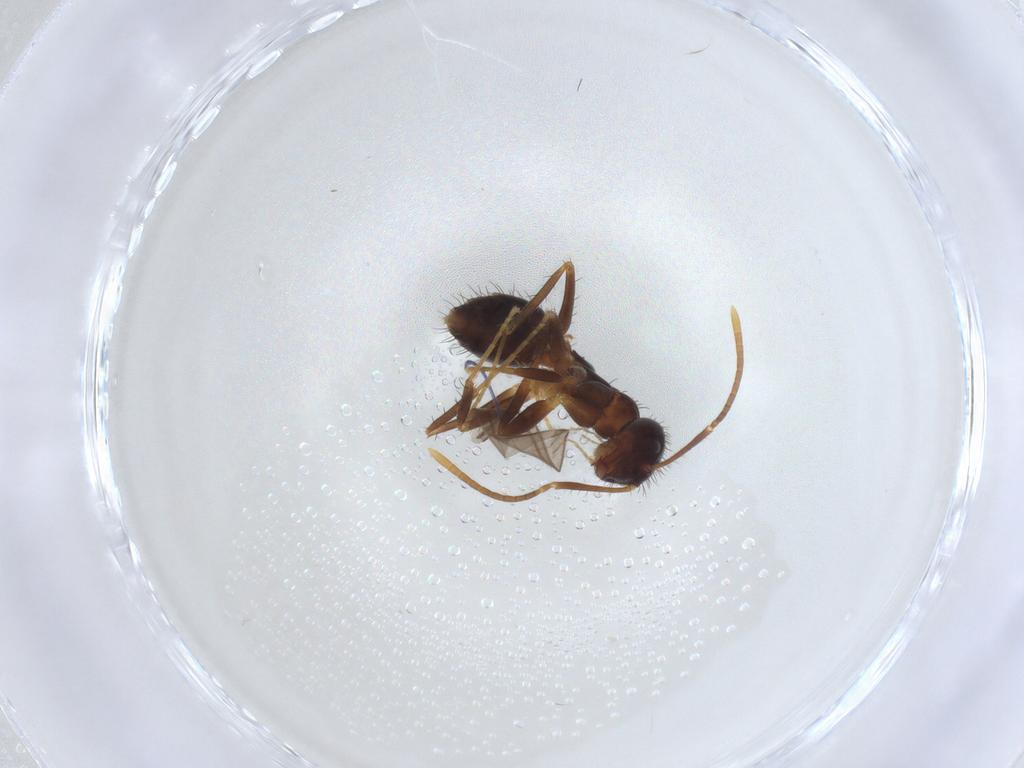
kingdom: Animalia
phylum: Arthropoda
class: Insecta
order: Hymenoptera
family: Formicidae
